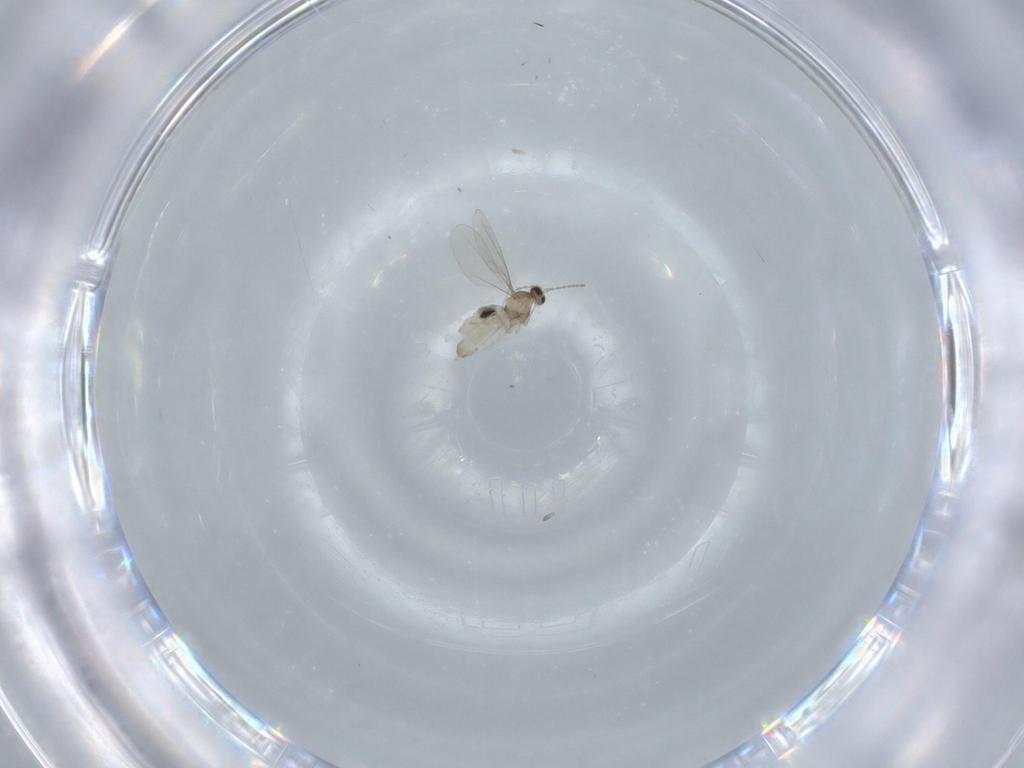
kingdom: Animalia
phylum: Arthropoda
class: Insecta
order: Diptera
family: Cecidomyiidae
